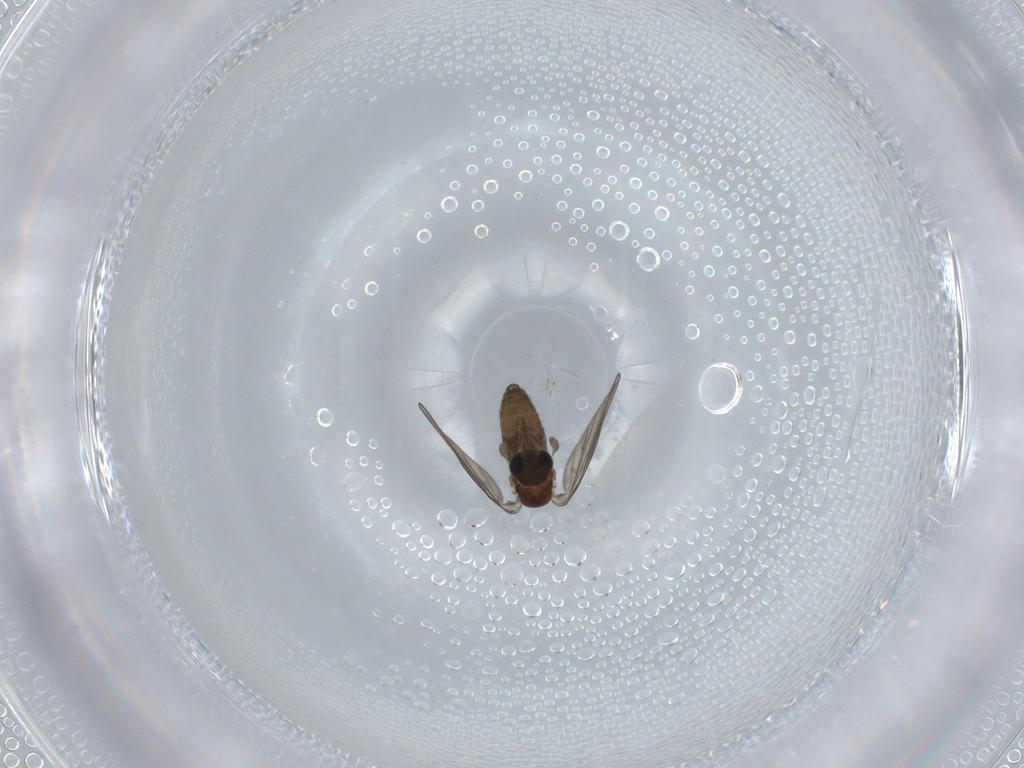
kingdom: Animalia
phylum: Arthropoda
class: Insecta
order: Diptera
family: Psychodidae
